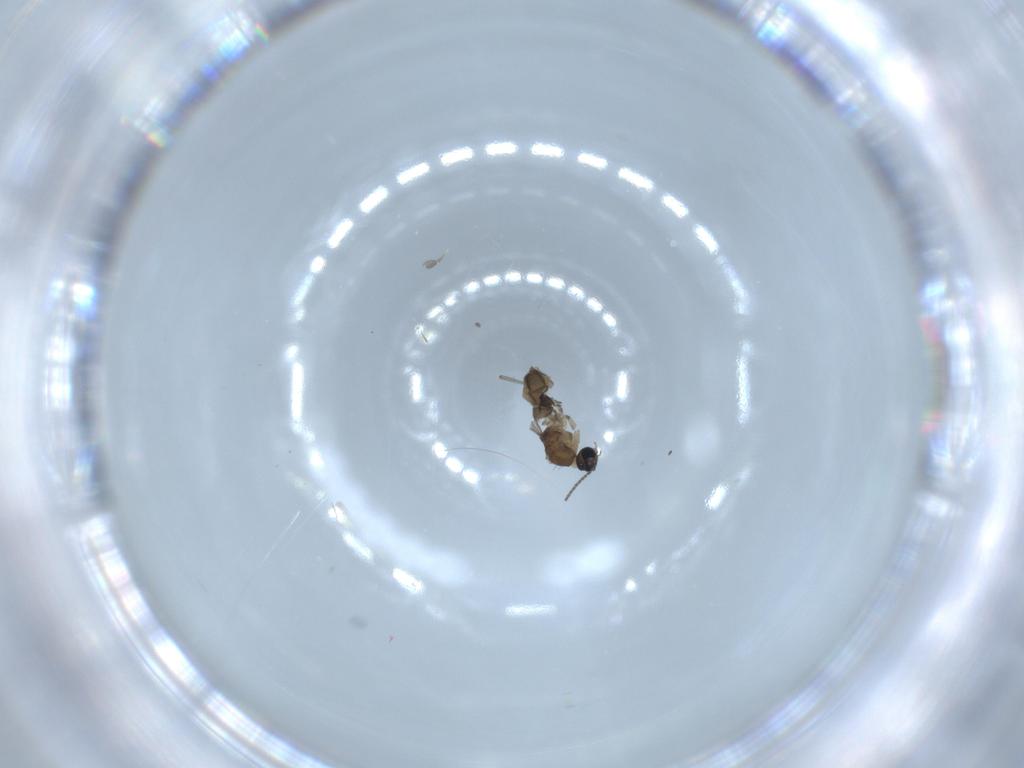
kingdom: Animalia
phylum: Arthropoda
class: Insecta
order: Diptera
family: Sciaridae
